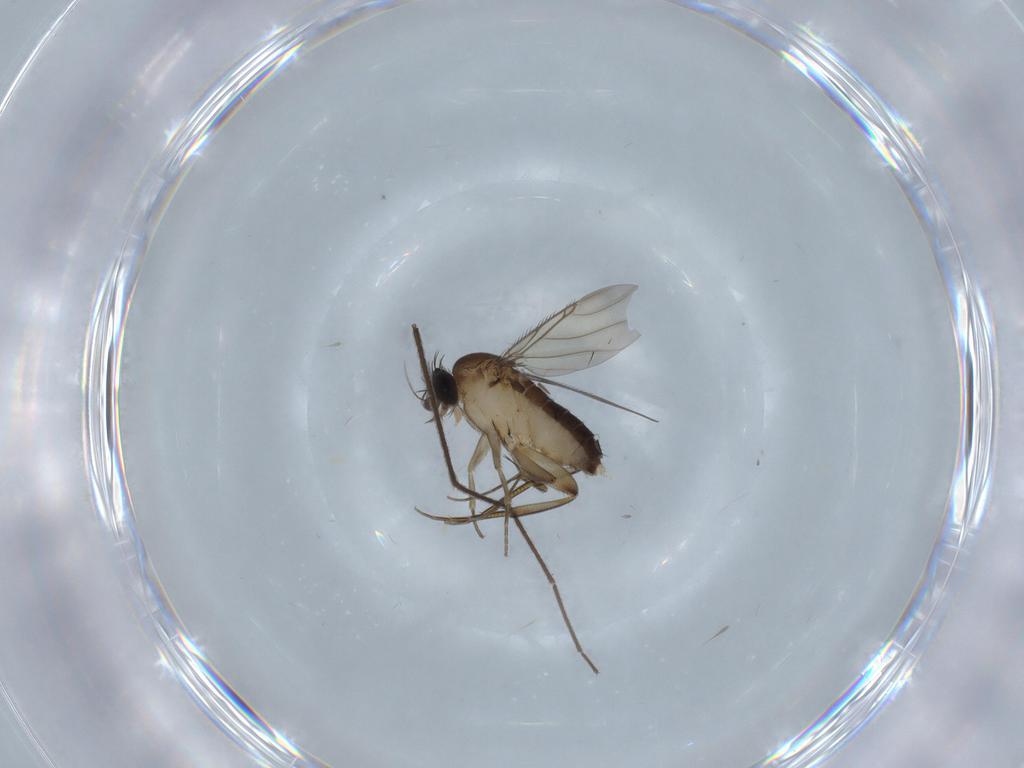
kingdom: Animalia
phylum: Arthropoda
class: Insecta
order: Diptera
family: Phoridae
